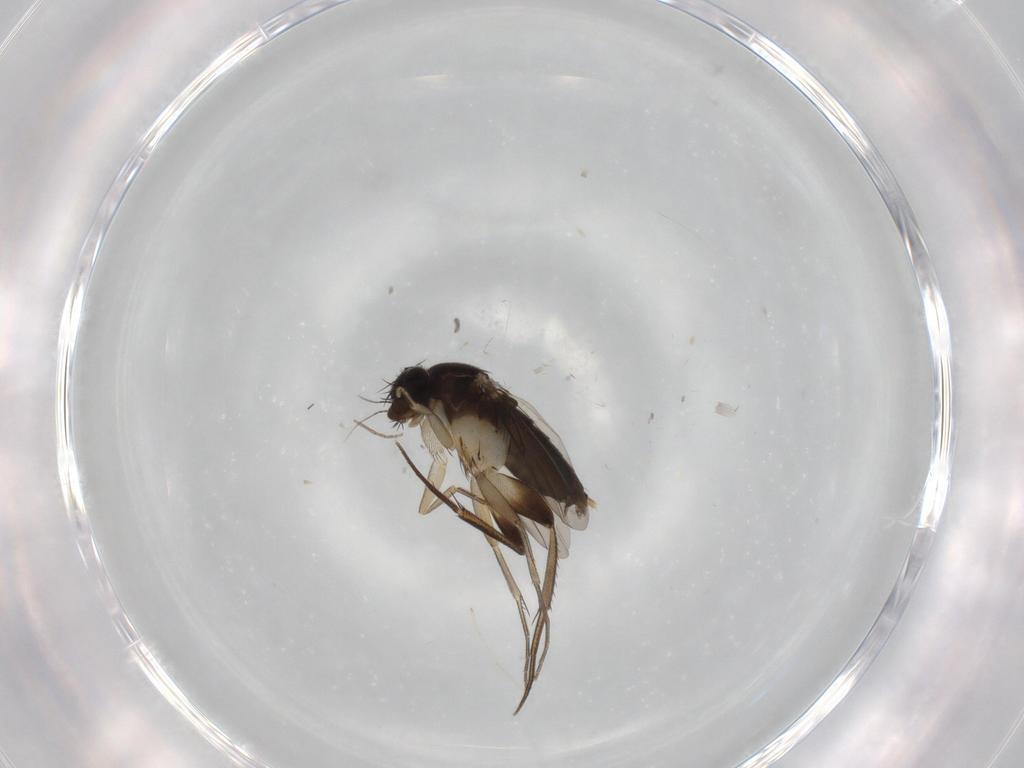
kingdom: Animalia
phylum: Arthropoda
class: Insecta
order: Diptera
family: Phoridae
